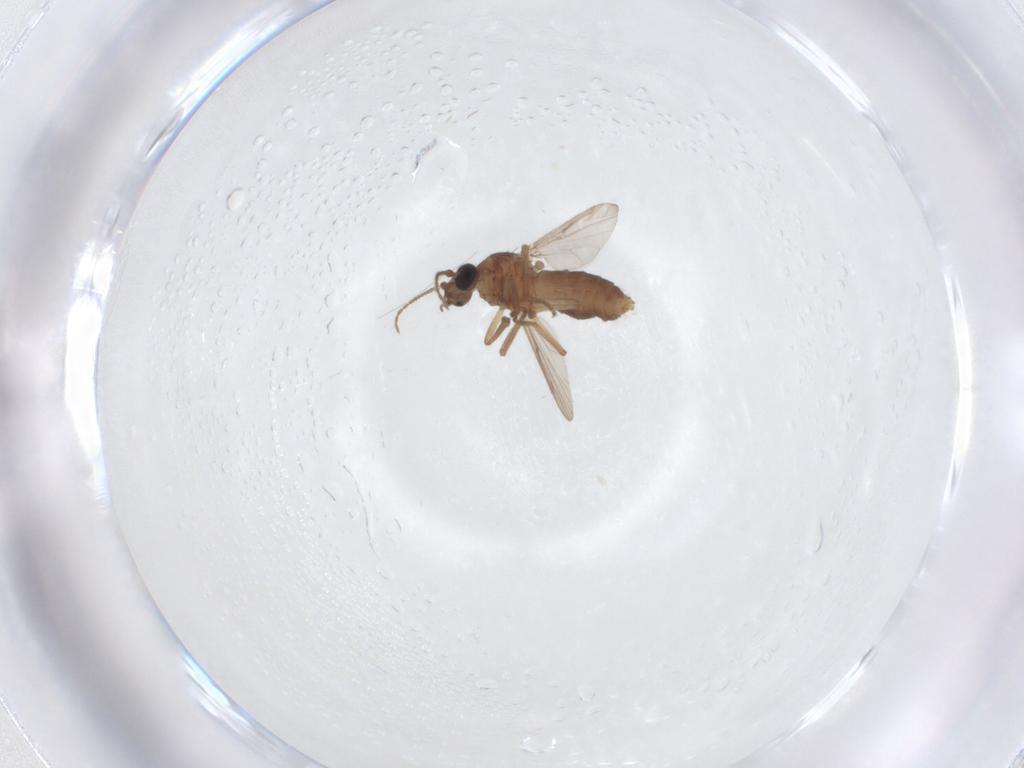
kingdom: Animalia
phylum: Arthropoda
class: Insecta
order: Diptera
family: Ceratopogonidae
